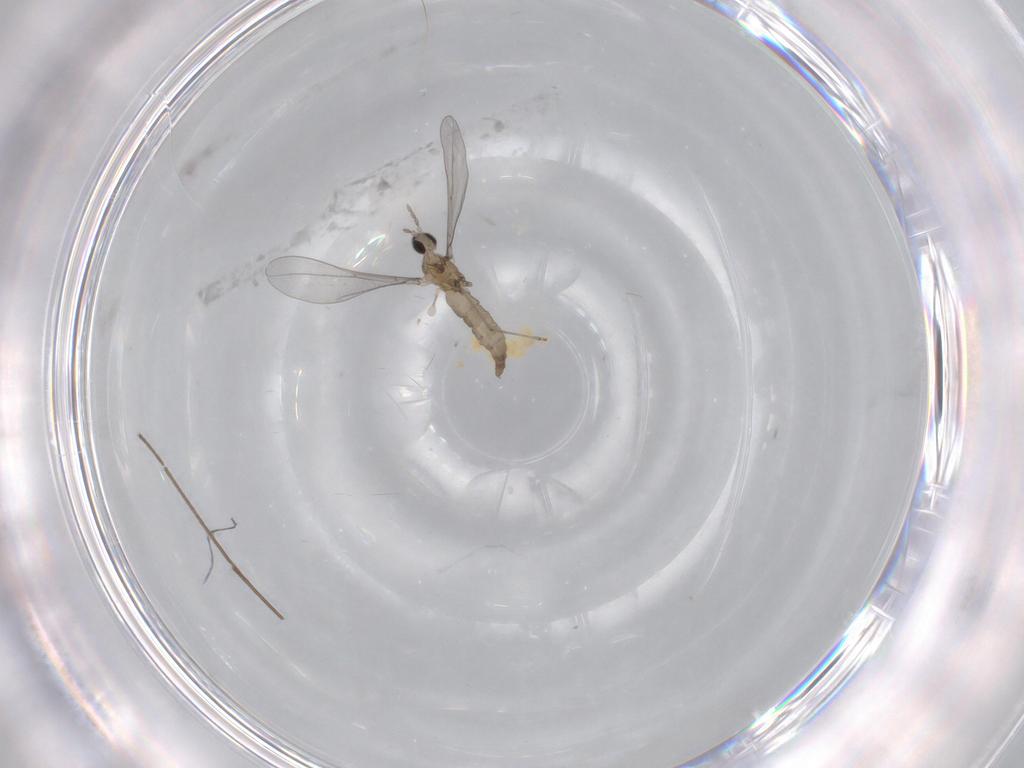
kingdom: Animalia
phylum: Arthropoda
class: Insecta
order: Diptera
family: Chironomidae
